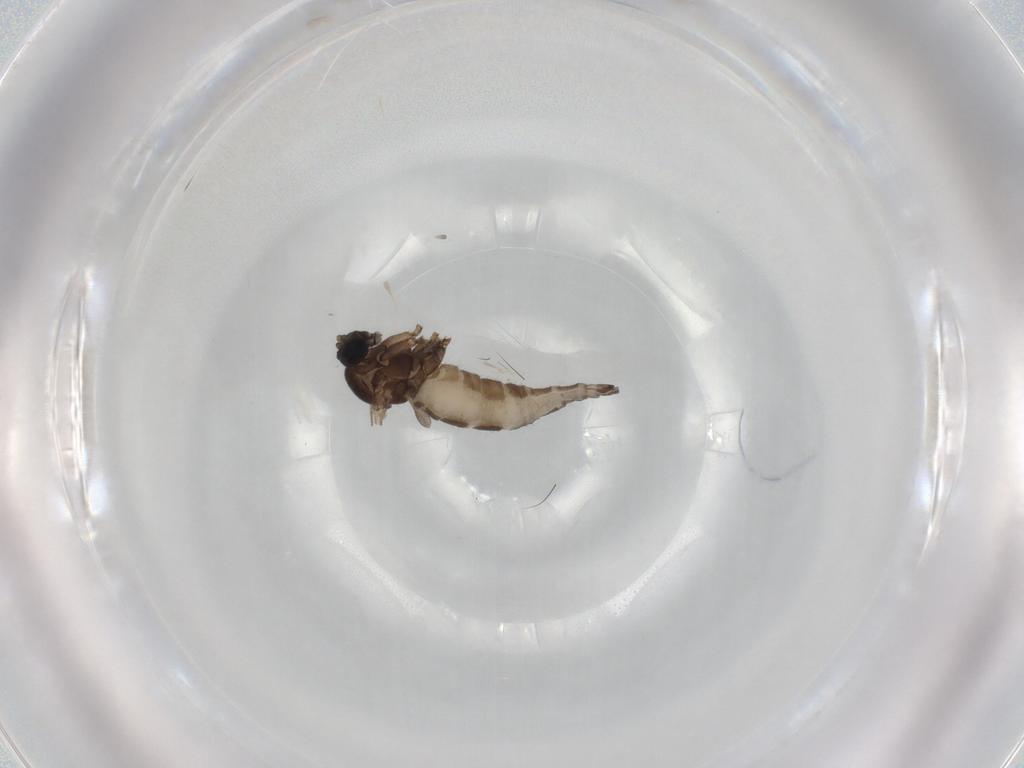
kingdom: Animalia
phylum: Arthropoda
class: Insecta
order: Diptera
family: Sciaridae
